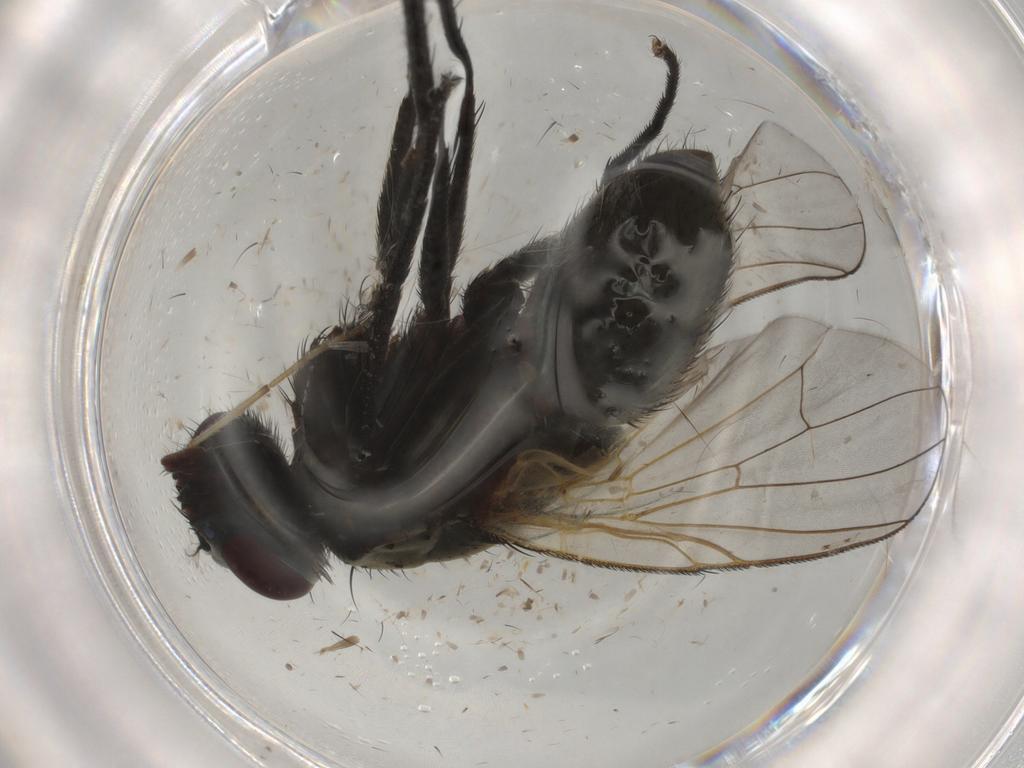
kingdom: Animalia
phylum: Arthropoda
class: Insecta
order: Diptera
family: Muscidae
